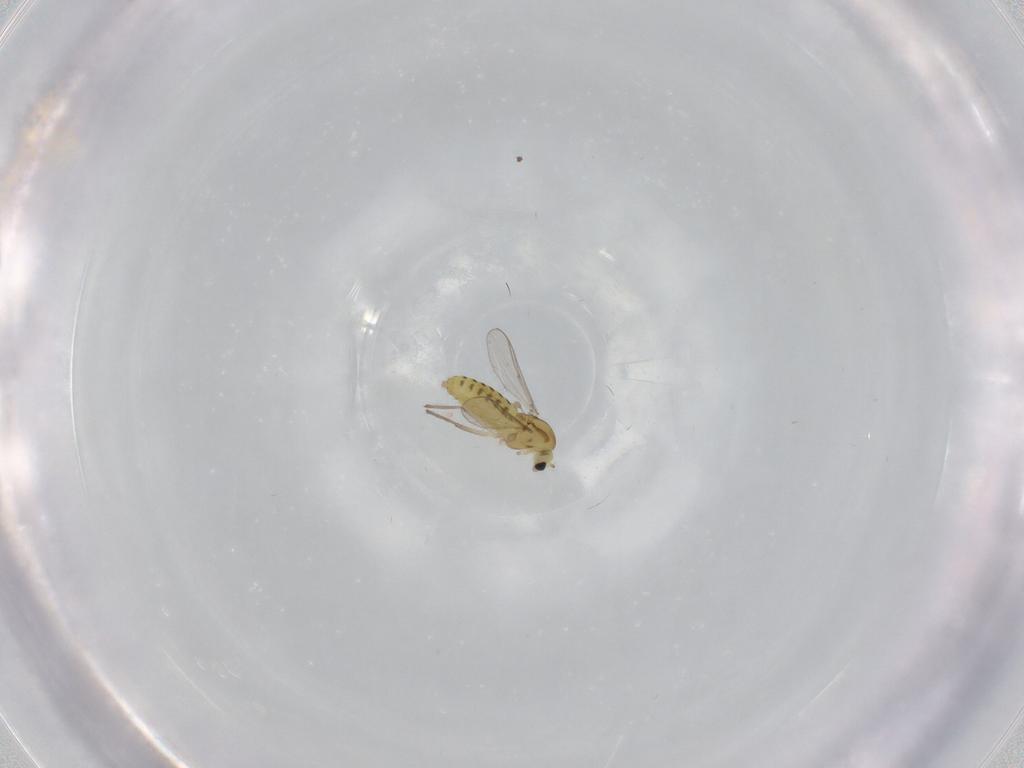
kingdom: Animalia
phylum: Arthropoda
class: Insecta
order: Diptera
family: Chironomidae
